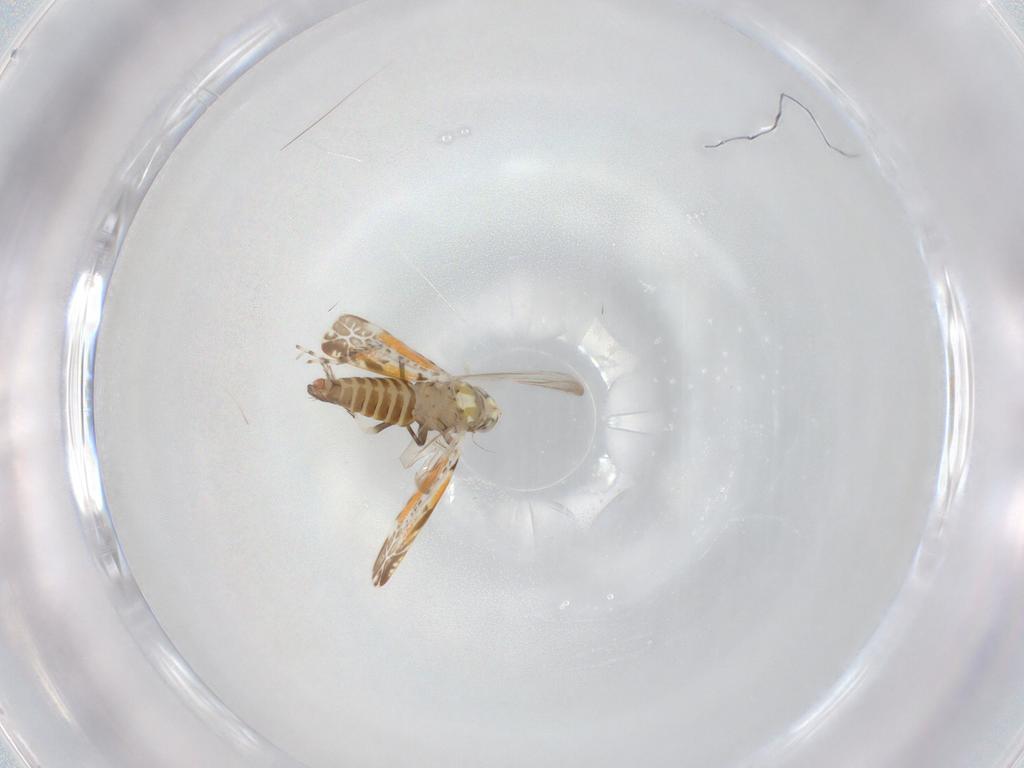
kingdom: Animalia
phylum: Arthropoda
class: Insecta
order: Hemiptera
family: Cicadellidae
